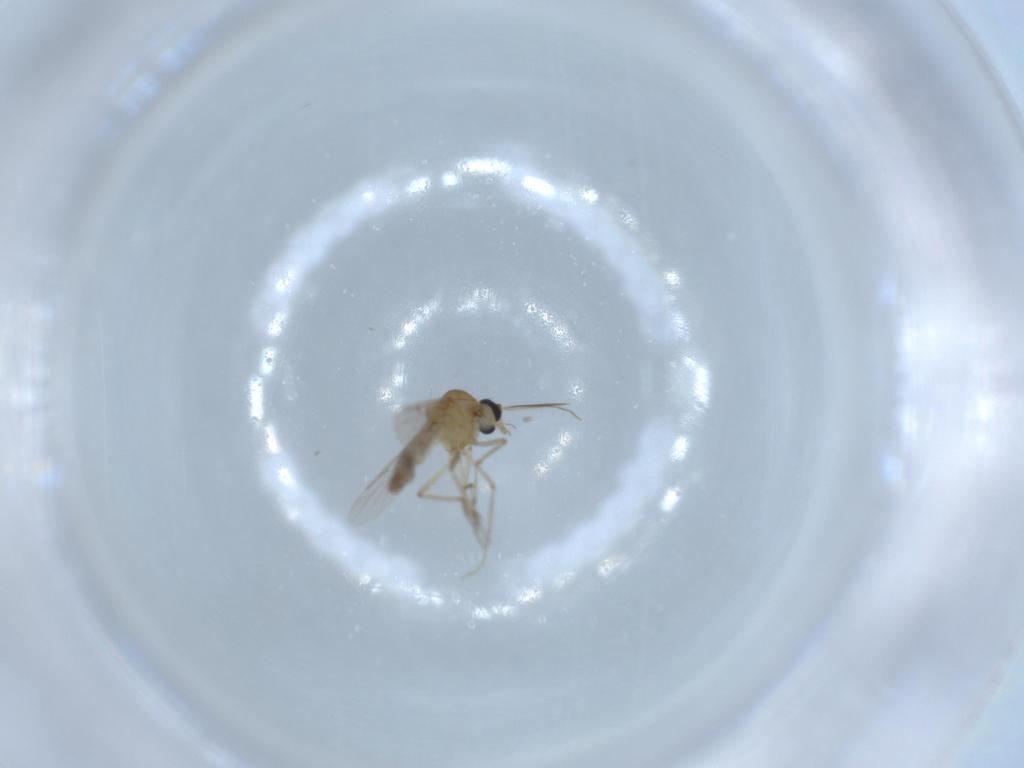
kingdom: Animalia
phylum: Arthropoda
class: Insecta
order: Diptera
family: Ceratopogonidae
